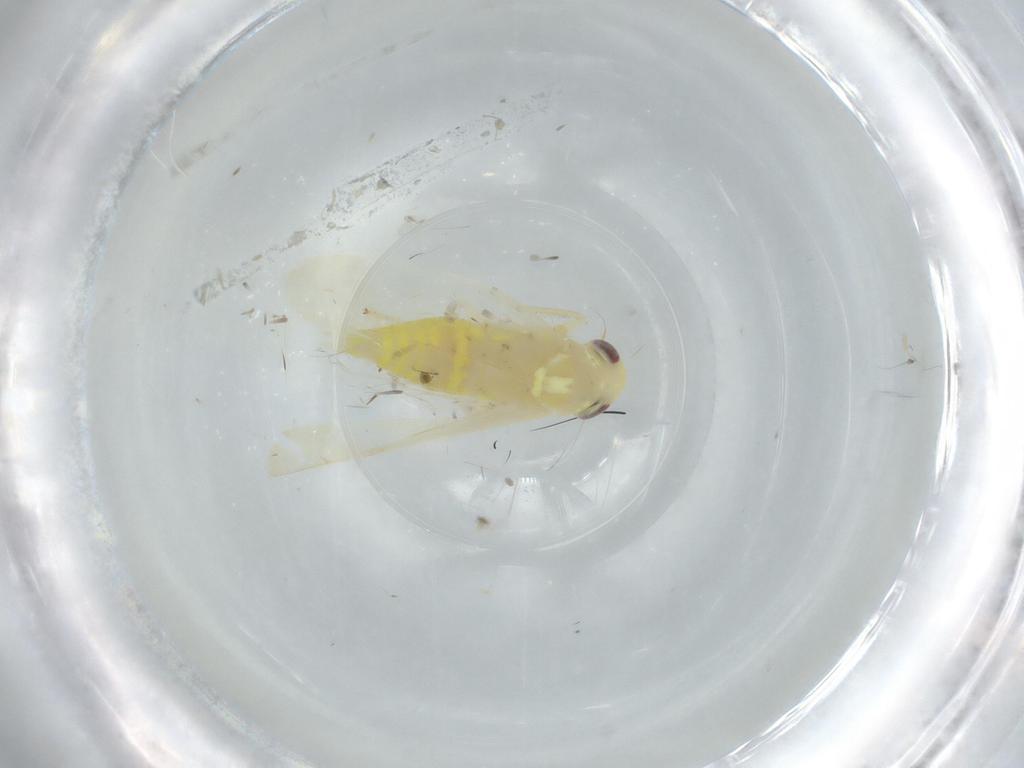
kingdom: Animalia
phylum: Arthropoda
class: Insecta
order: Hemiptera
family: Cicadellidae
